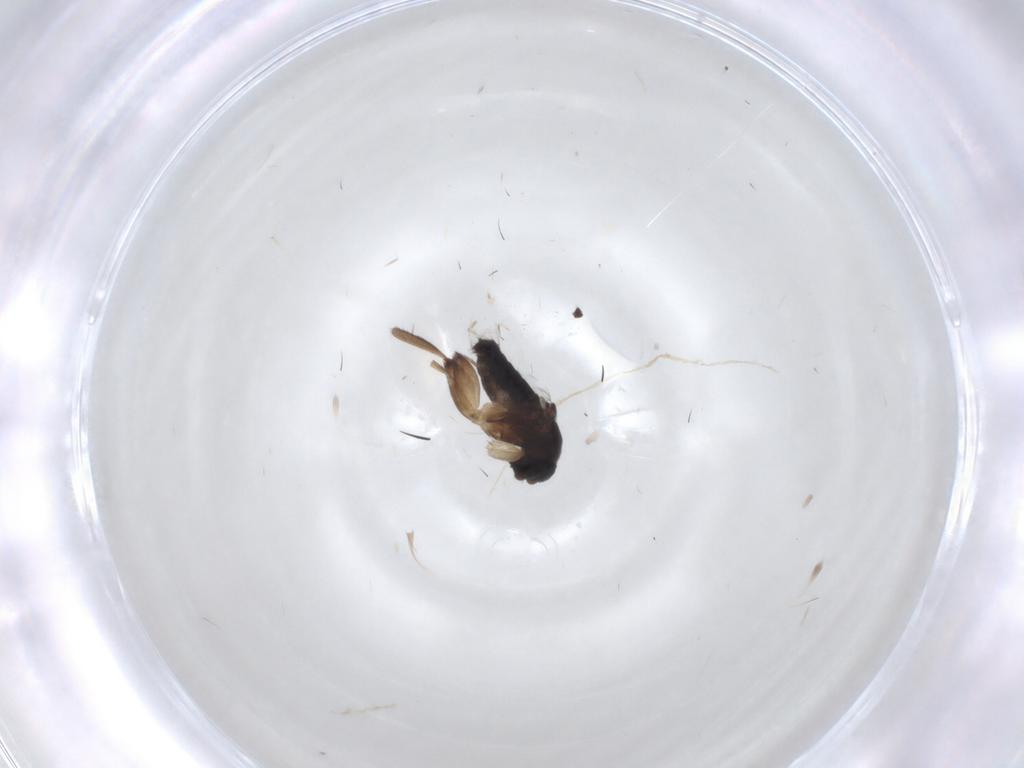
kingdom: Animalia
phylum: Arthropoda
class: Insecta
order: Diptera
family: Phoridae
